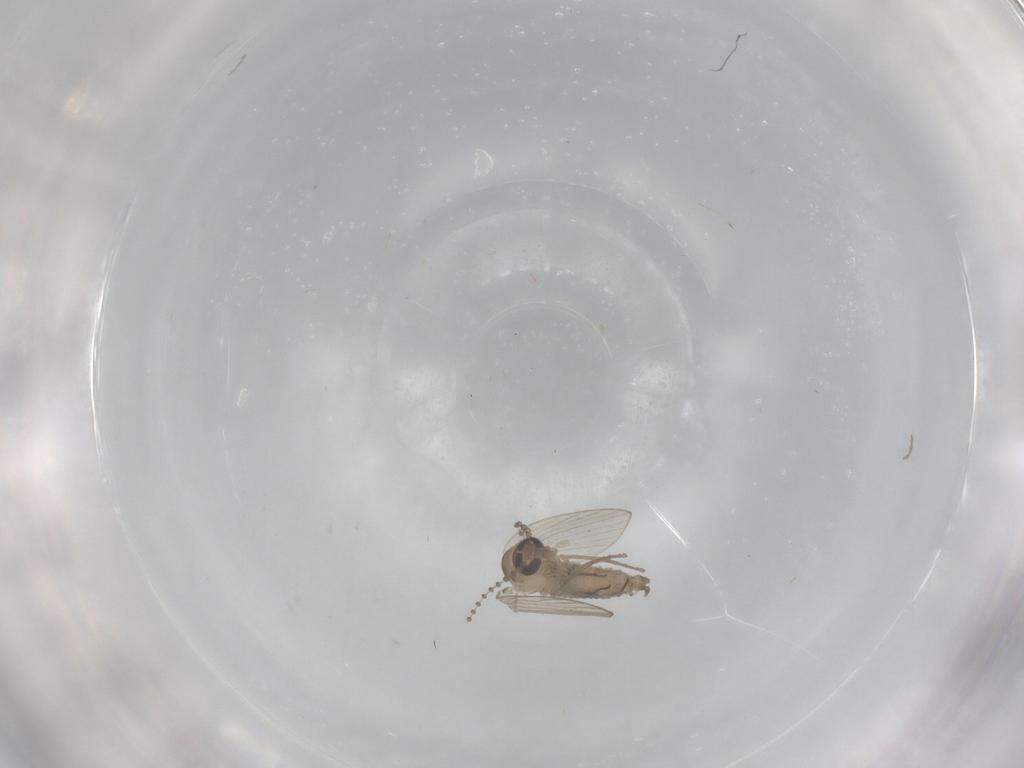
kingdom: Animalia
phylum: Arthropoda
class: Insecta
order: Diptera
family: Psychodidae
